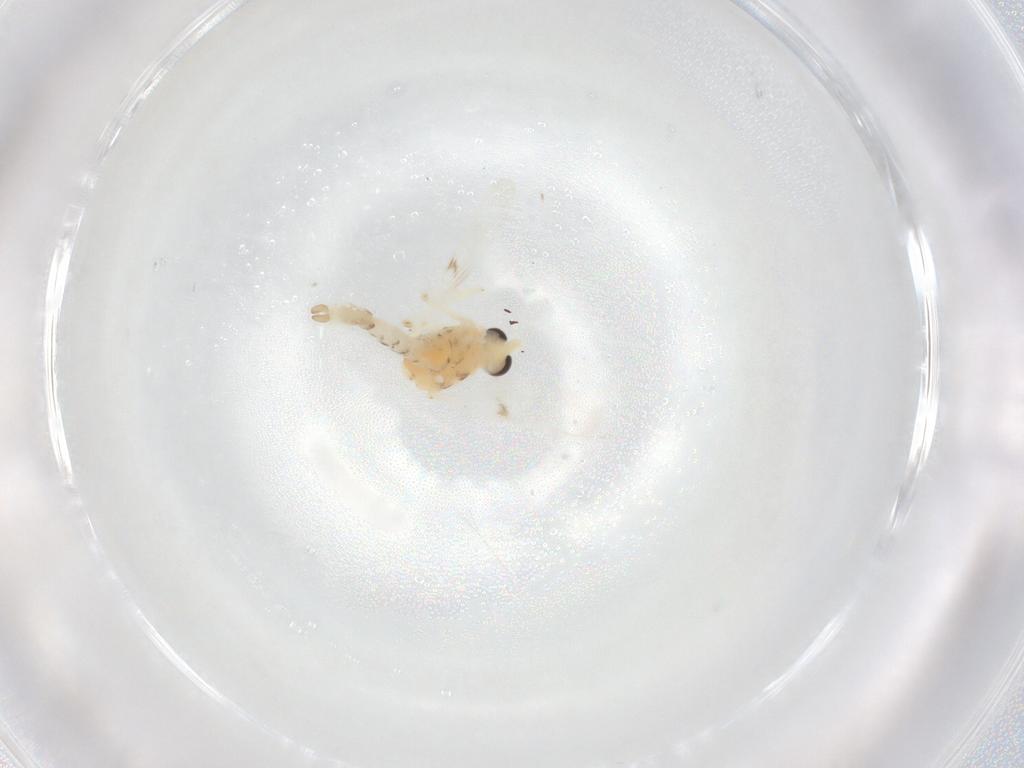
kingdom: Animalia
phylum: Arthropoda
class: Insecta
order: Diptera
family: Chironomidae
